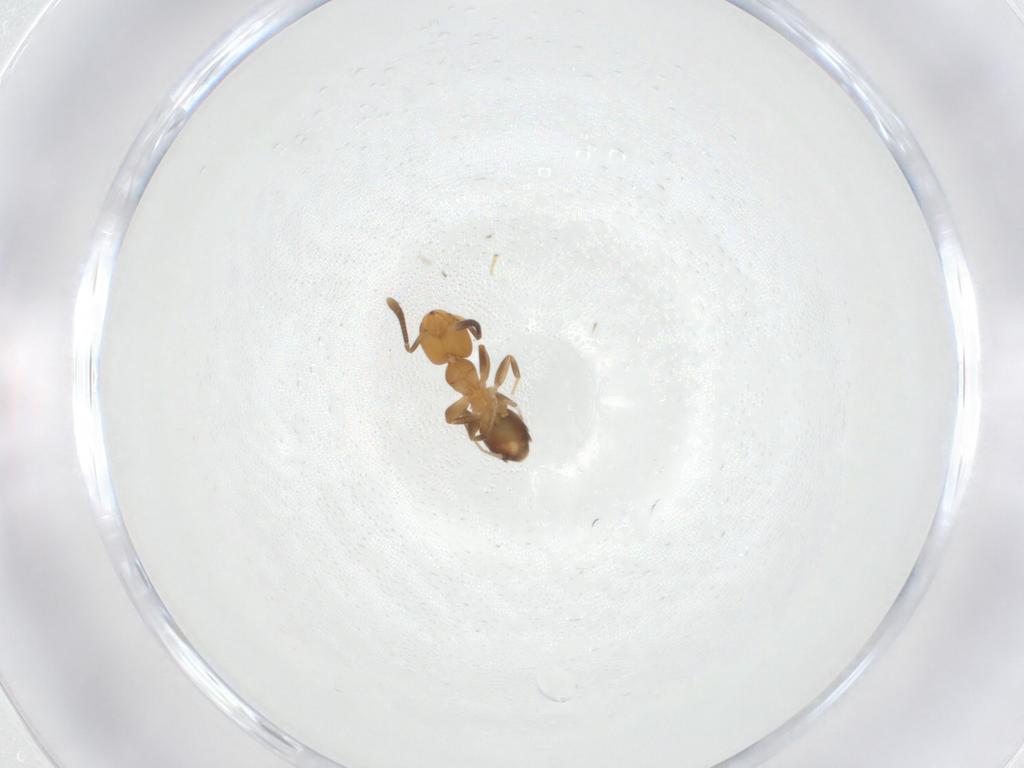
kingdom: Animalia
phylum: Arthropoda
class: Insecta
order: Hymenoptera
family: Formicidae
